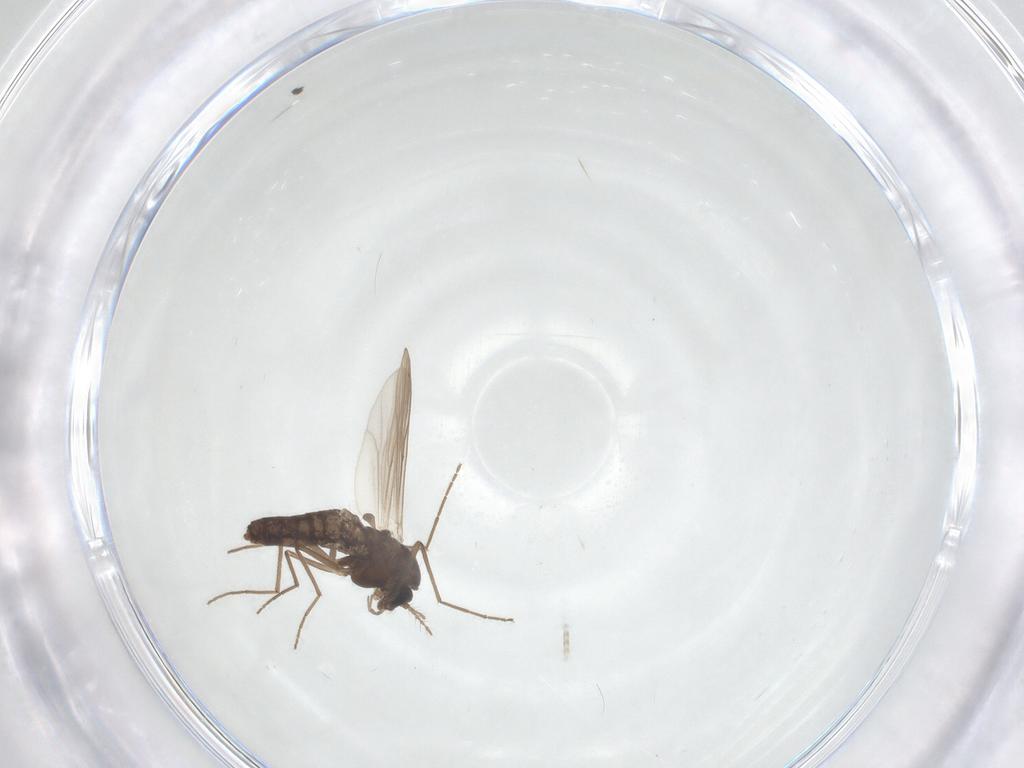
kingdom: Animalia
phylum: Arthropoda
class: Insecta
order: Diptera
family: Chironomidae
